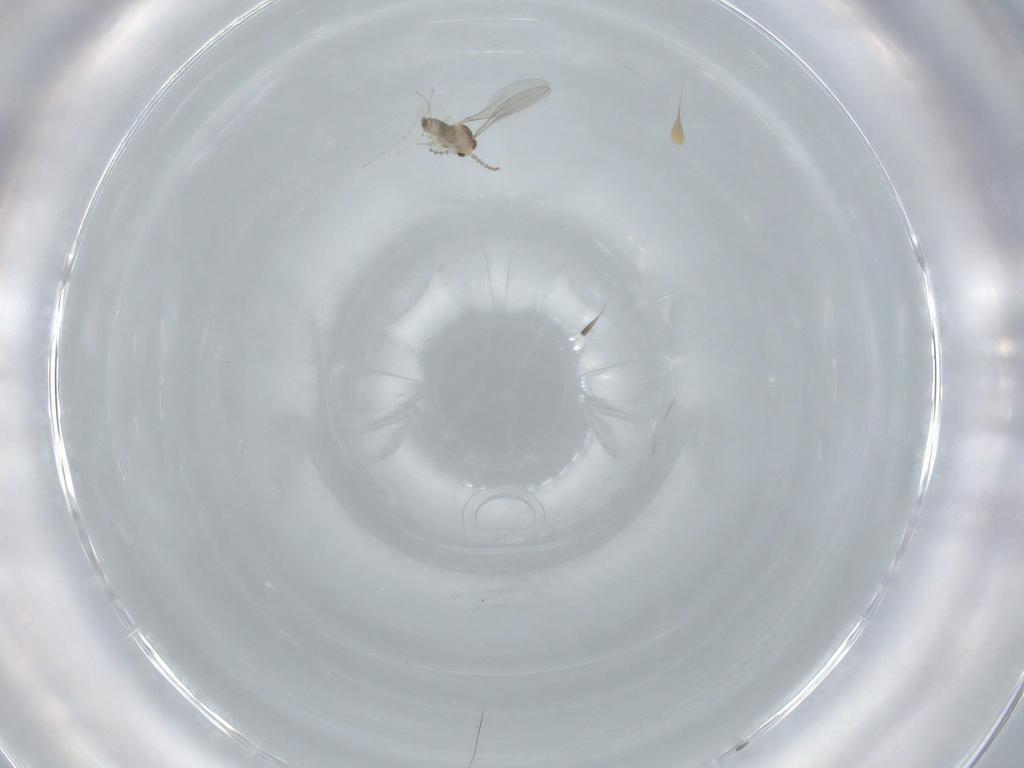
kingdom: Animalia
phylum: Arthropoda
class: Insecta
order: Diptera
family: Cecidomyiidae
